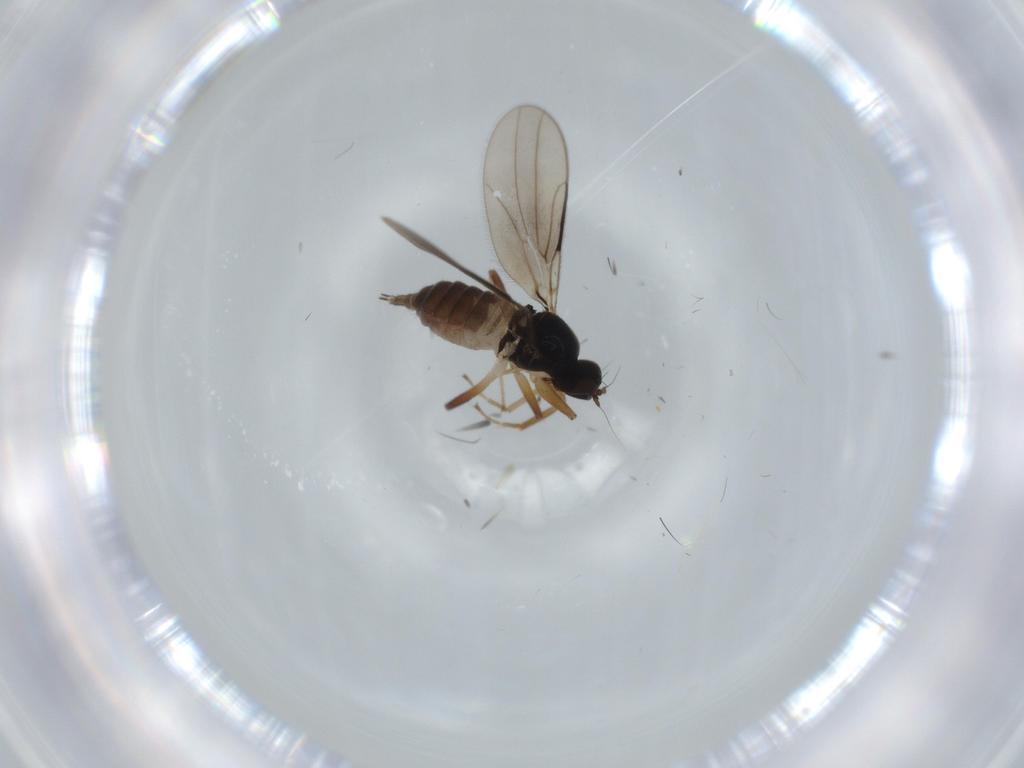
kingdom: Animalia
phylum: Arthropoda
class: Insecta
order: Diptera
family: Hybotidae
